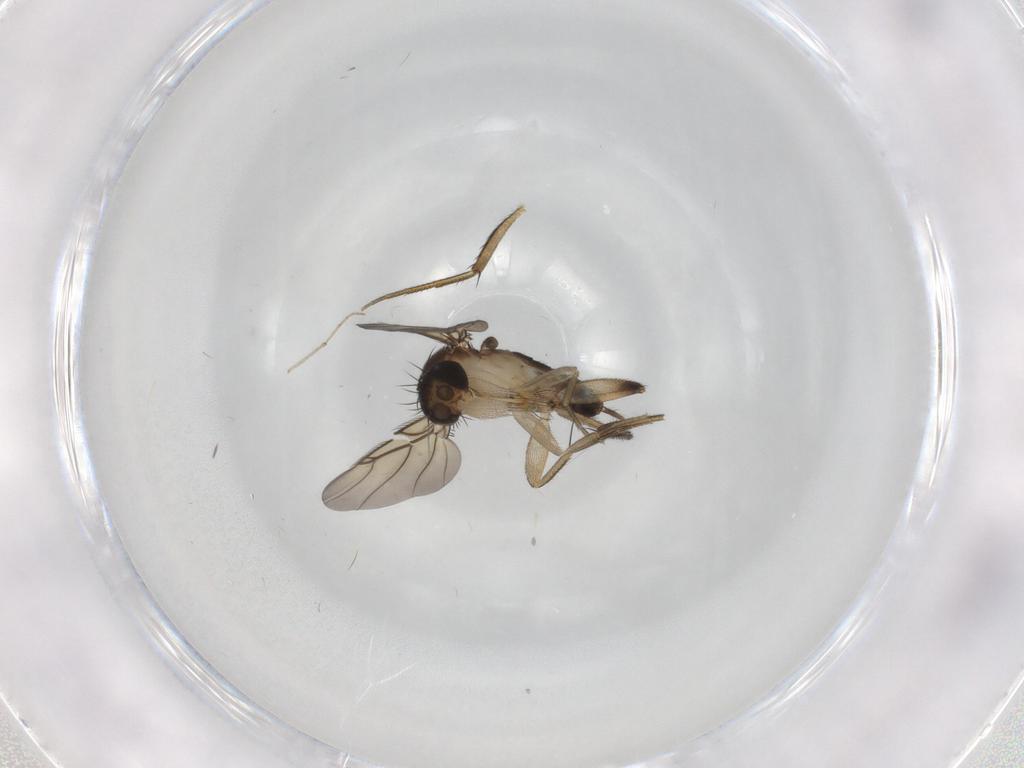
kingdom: Animalia
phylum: Arthropoda
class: Insecta
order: Diptera
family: Phoridae
